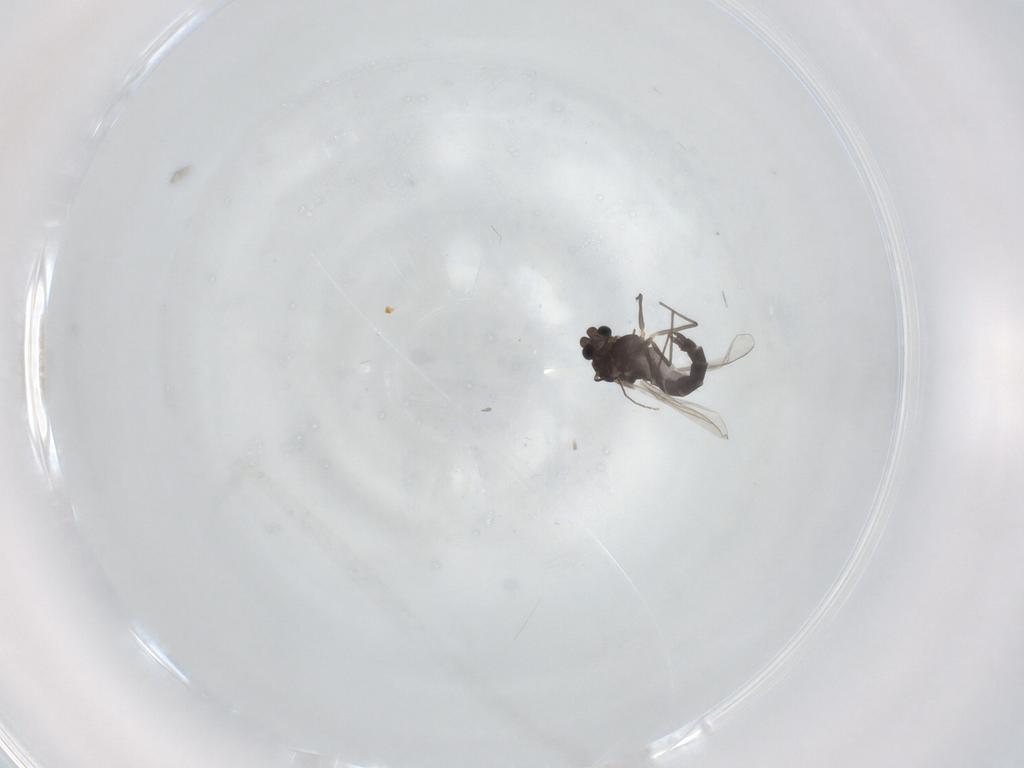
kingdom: Animalia
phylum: Arthropoda
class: Insecta
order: Diptera
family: Chironomidae
